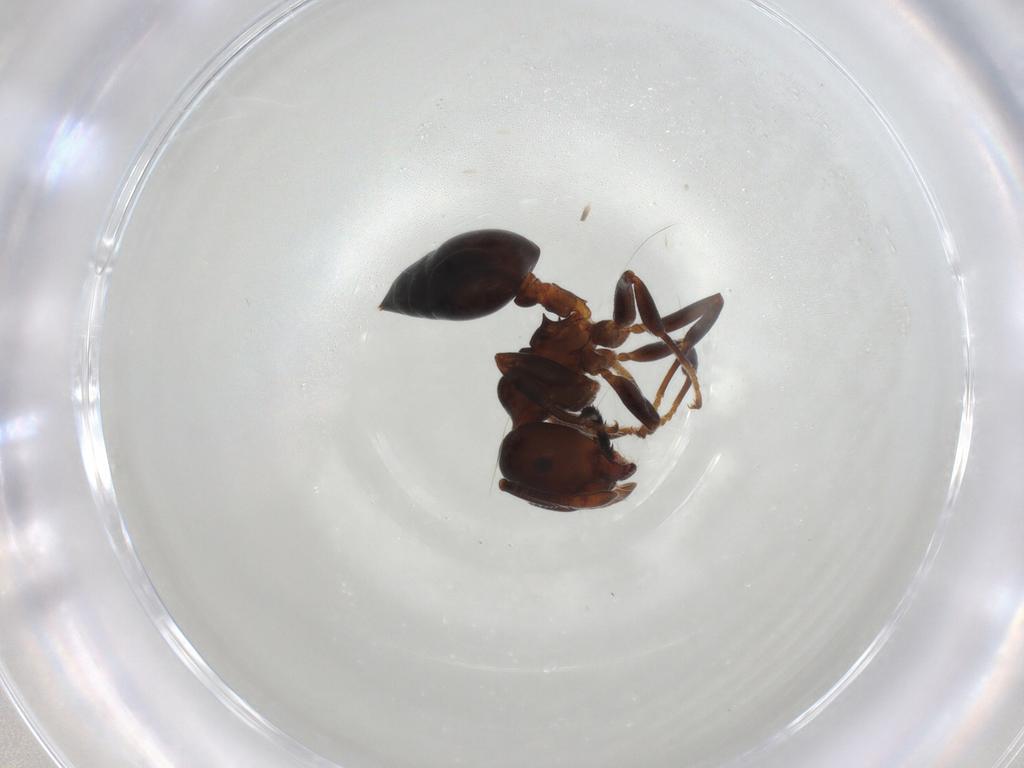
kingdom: Animalia
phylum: Arthropoda
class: Insecta
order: Hymenoptera
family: Formicidae
